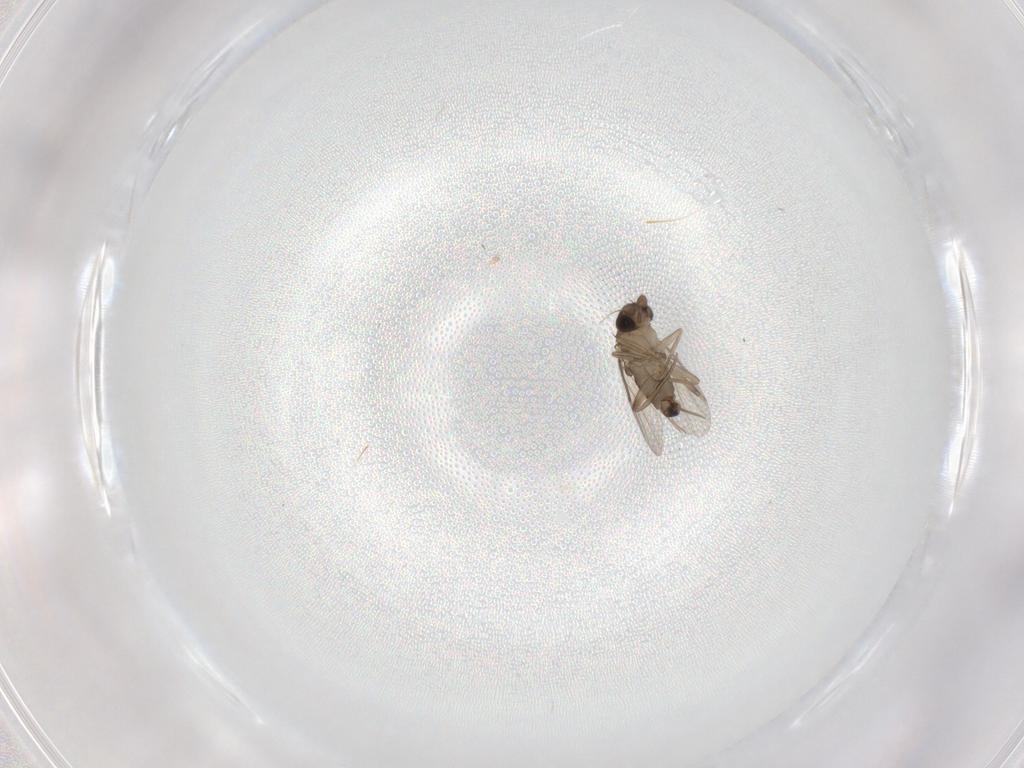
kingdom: Animalia
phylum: Arthropoda
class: Insecta
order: Diptera
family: Phoridae
